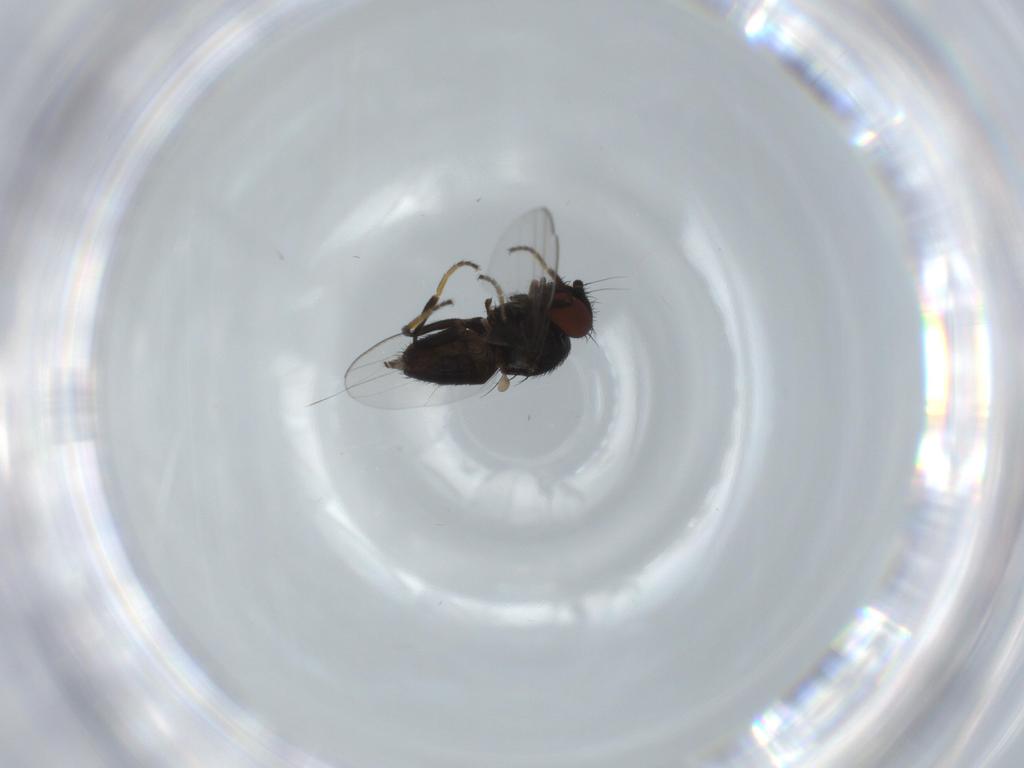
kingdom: Animalia
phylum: Arthropoda
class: Insecta
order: Diptera
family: Milichiidae
